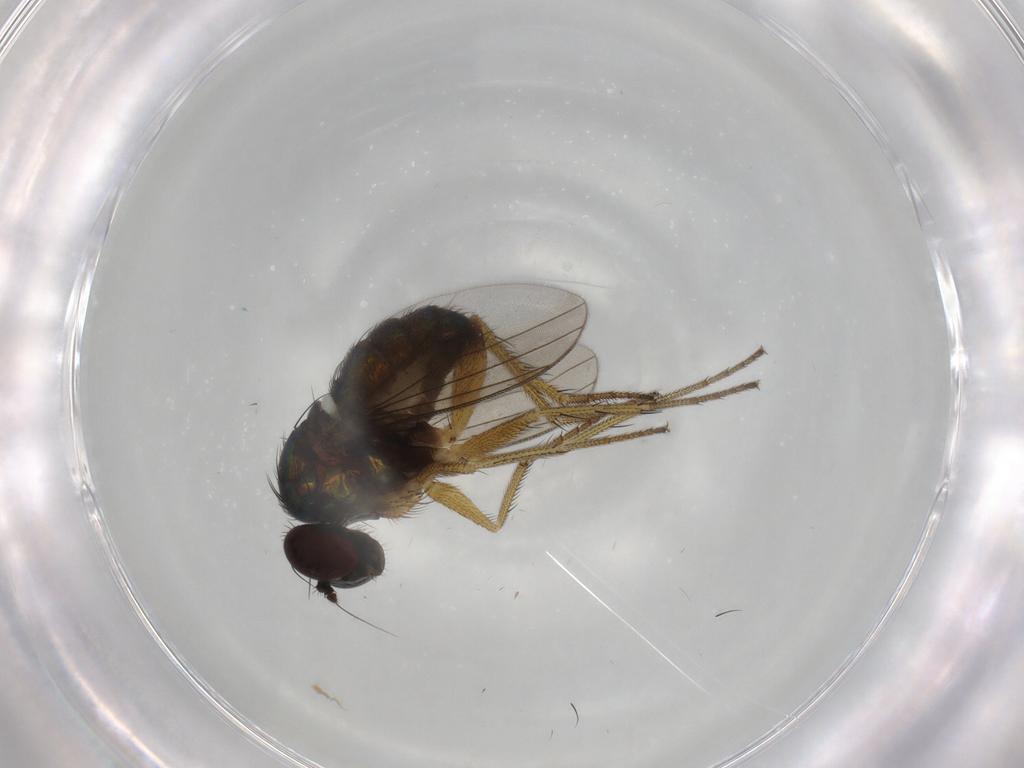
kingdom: Animalia
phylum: Arthropoda
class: Insecta
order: Diptera
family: Dolichopodidae
